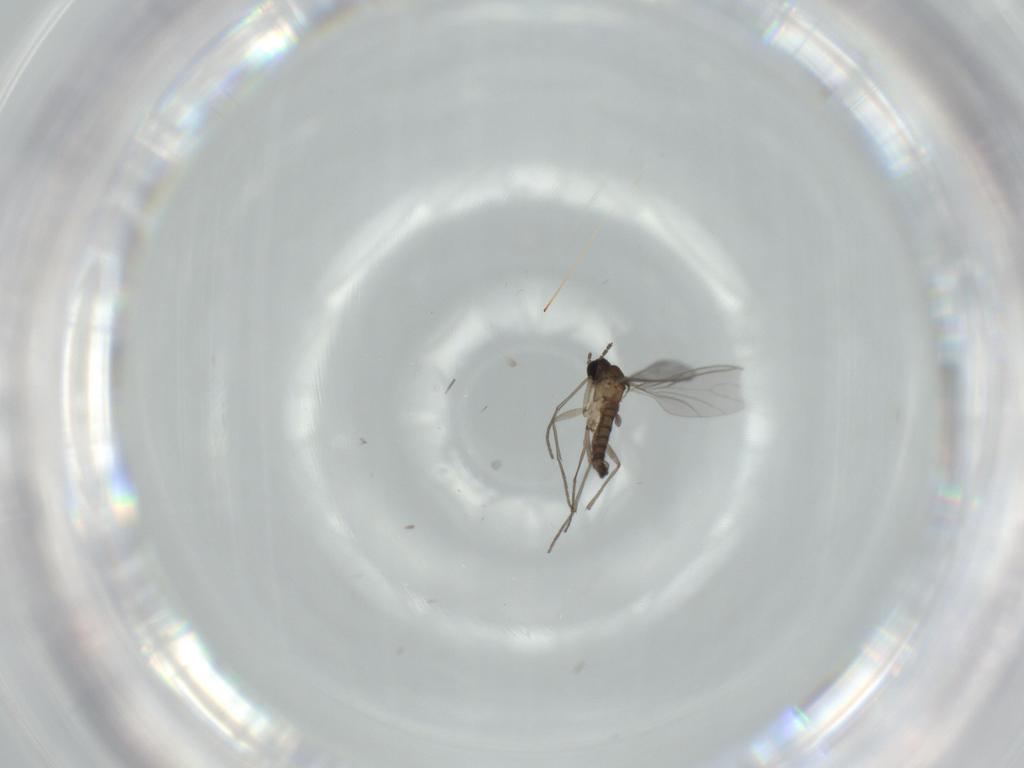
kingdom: Animalia
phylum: Arthropoda
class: Insecta
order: Diptera
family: Sciaridae
